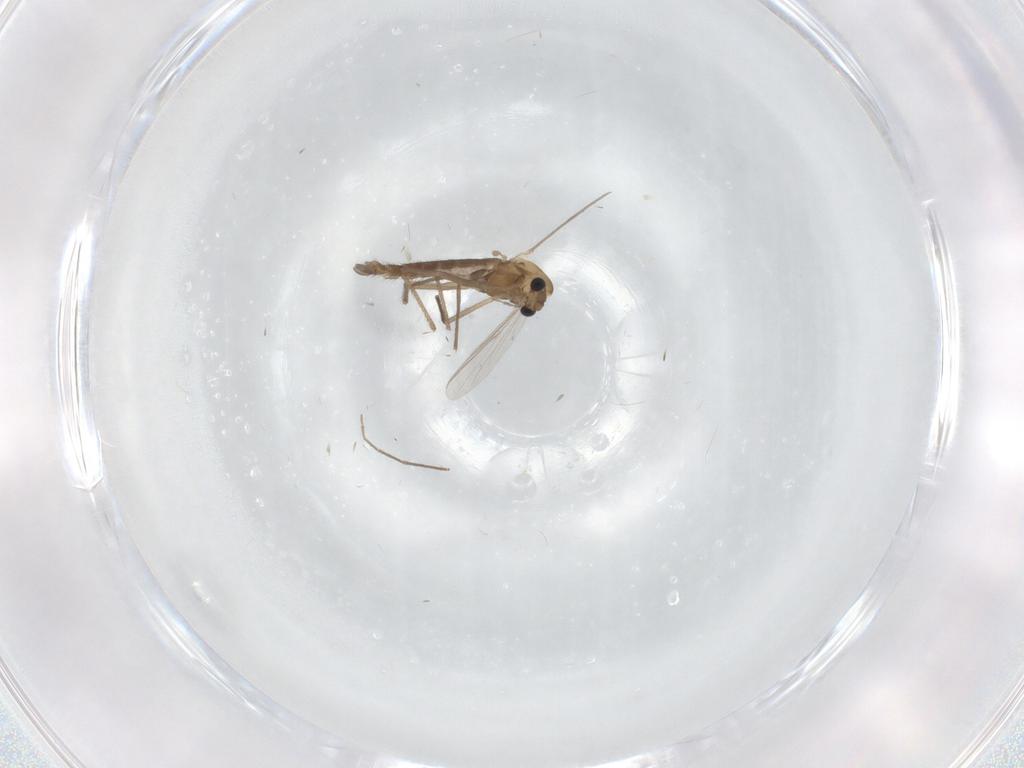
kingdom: Animalia
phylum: Arthropoda
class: Insecta
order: Diptera
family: Chironomidae
